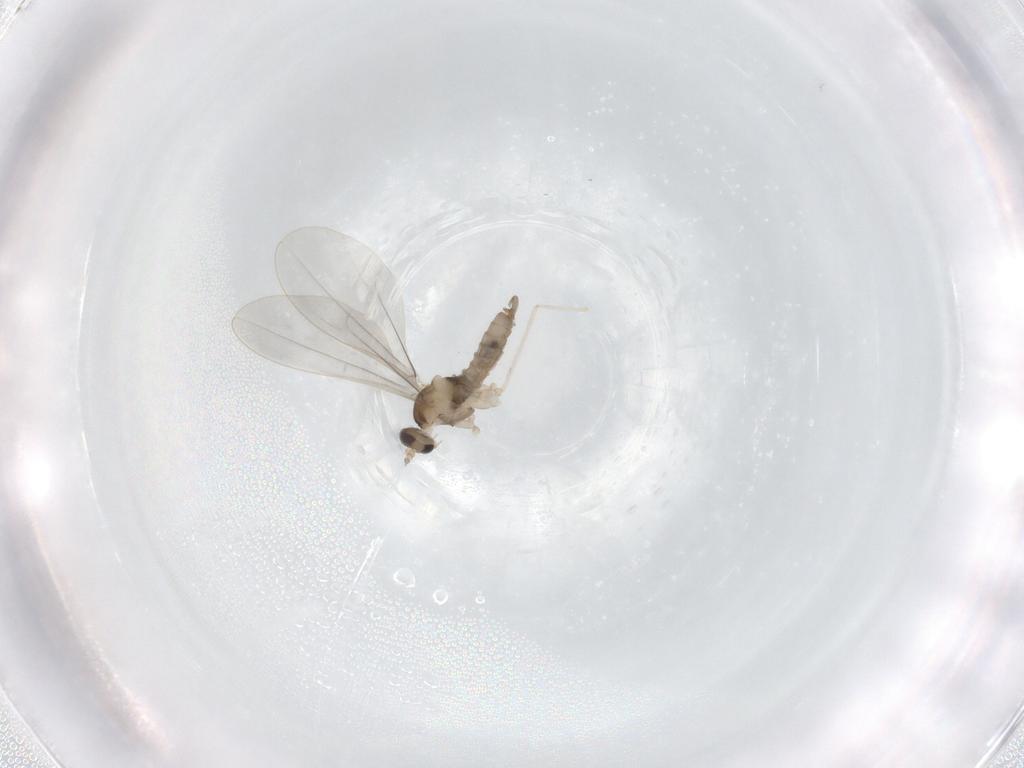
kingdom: Animalia
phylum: Arthropoda
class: Insecta
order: Diptera
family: Sciaridae
